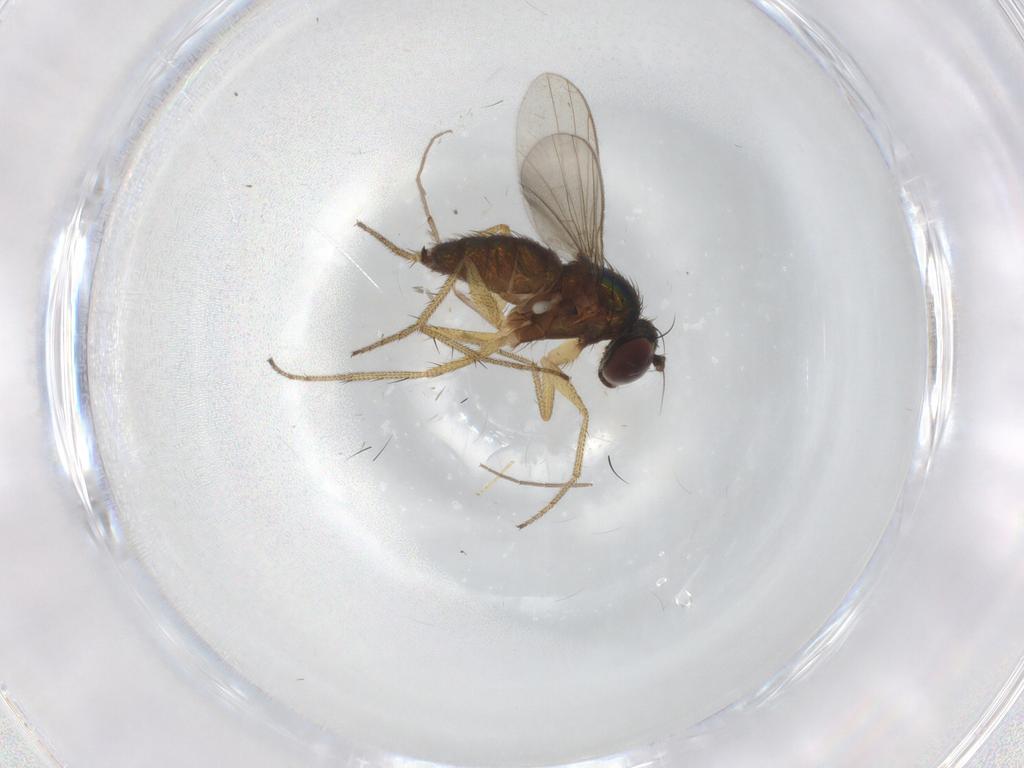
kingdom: Animalia
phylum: Arthropoda
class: Insecta
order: Diptera
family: Dolichopodidae
